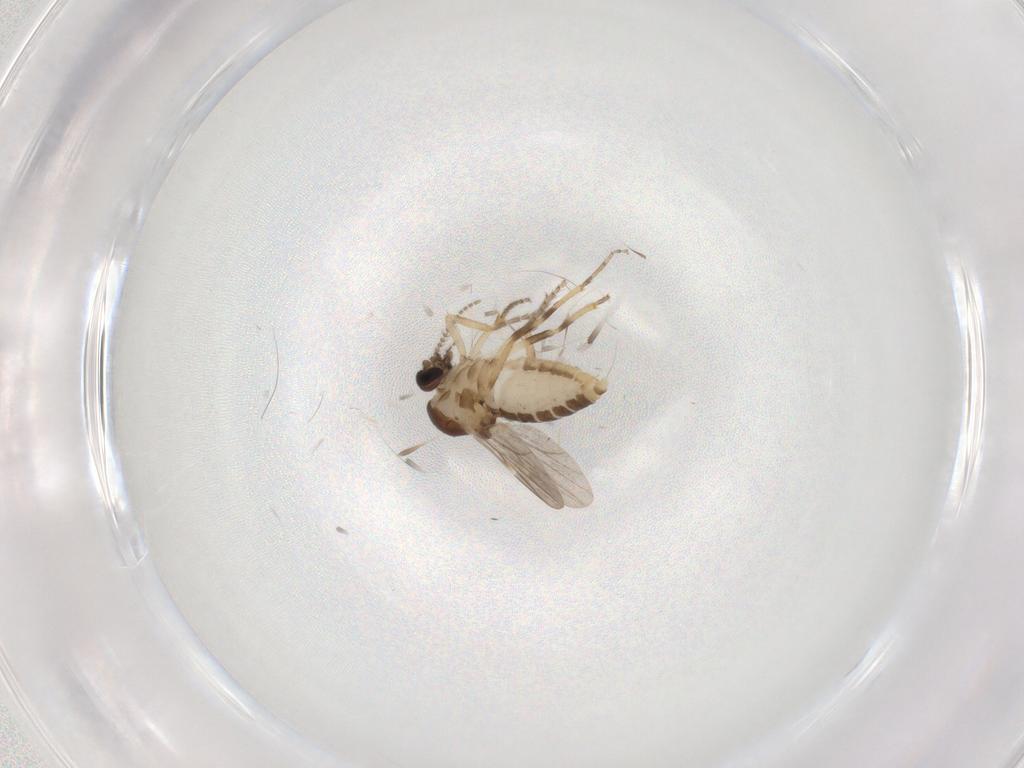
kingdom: Animalia
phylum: Arthropoda
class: Insecta
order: Diptera
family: Ceratopogonidae
